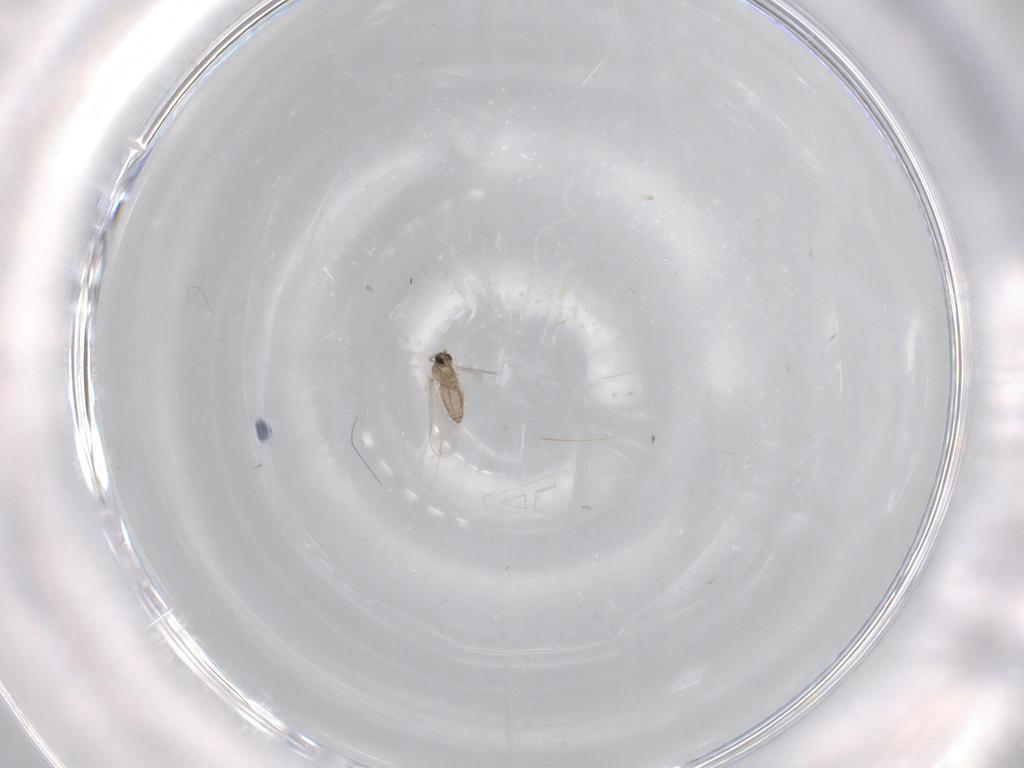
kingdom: Animalia
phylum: Arthropoda
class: Insecta
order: Diptera
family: Cecidomyiidae
